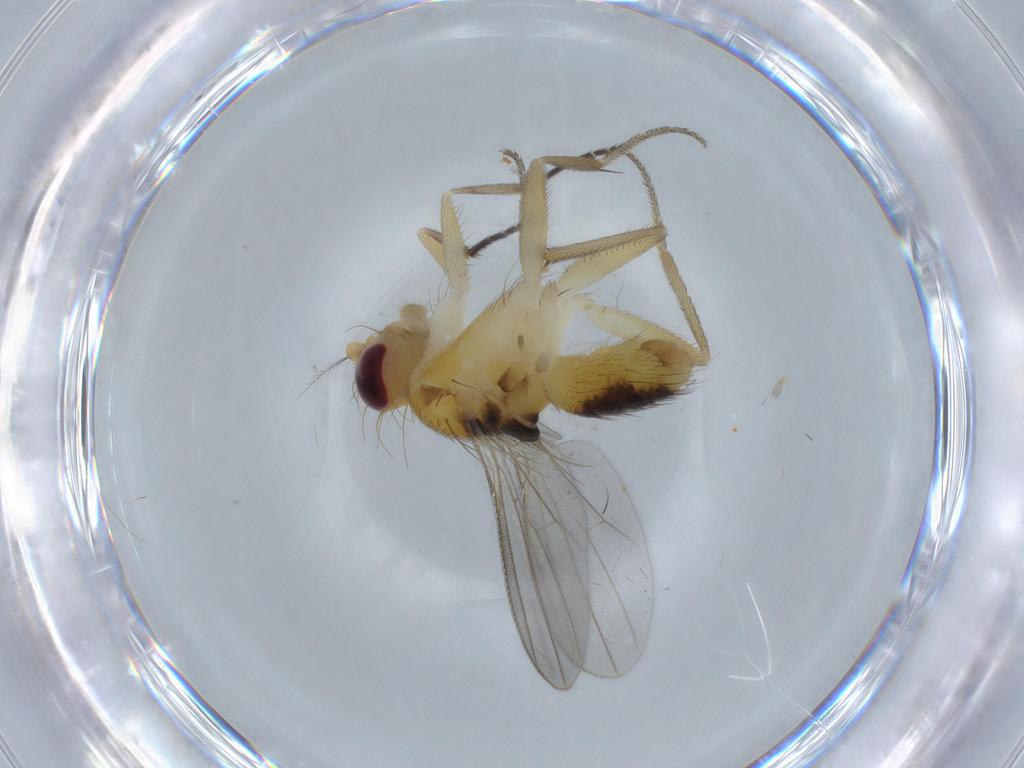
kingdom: Animalia
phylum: Arthropoda
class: Insecta
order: Diptera
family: Clusiidae
